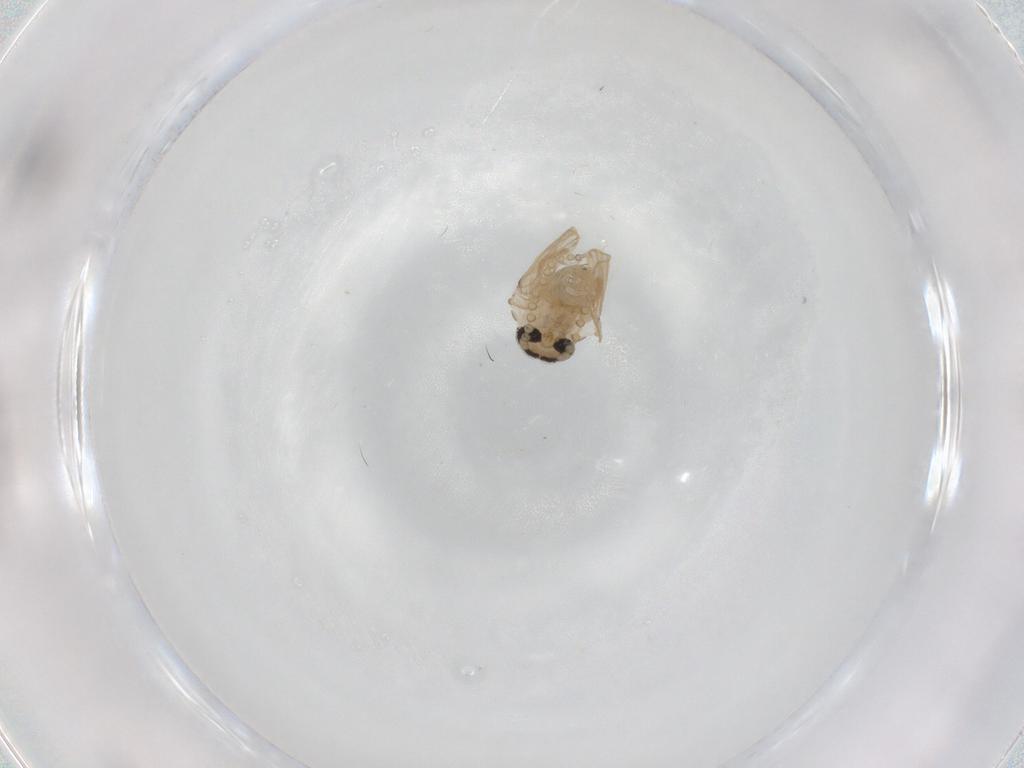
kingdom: Animalia
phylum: Arthropoda
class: Insecta
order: Diptera
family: Cecidomyiidae
